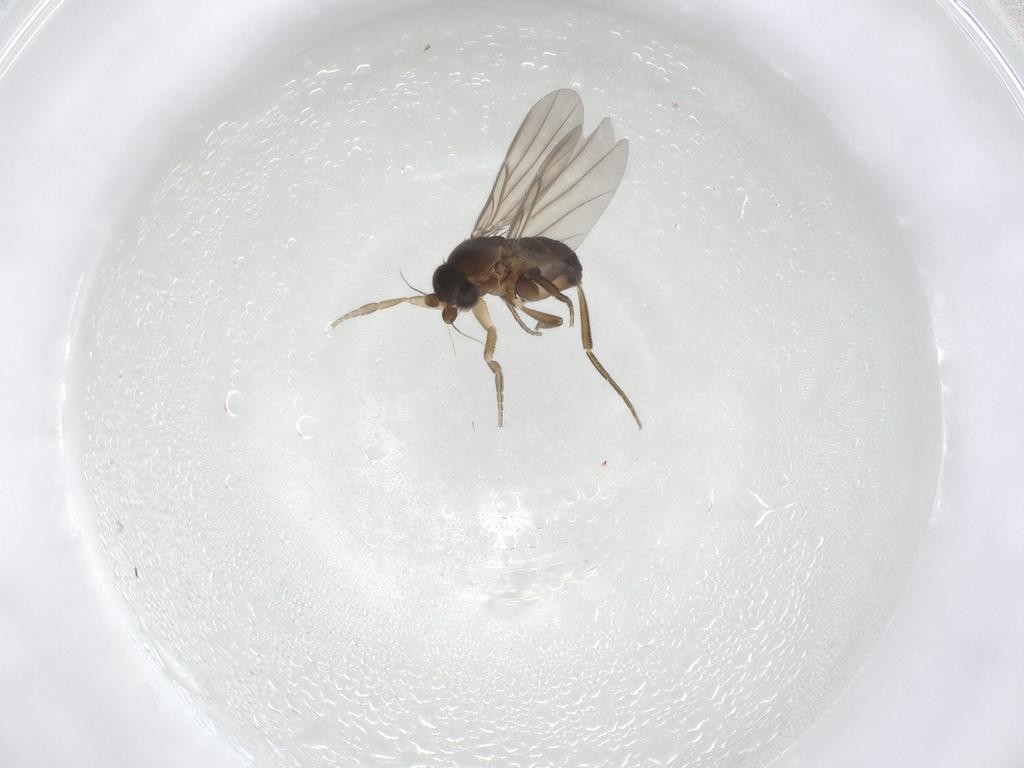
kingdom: Animalia
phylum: Arthropoda
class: Insecta
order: Diptera
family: Phoridae
